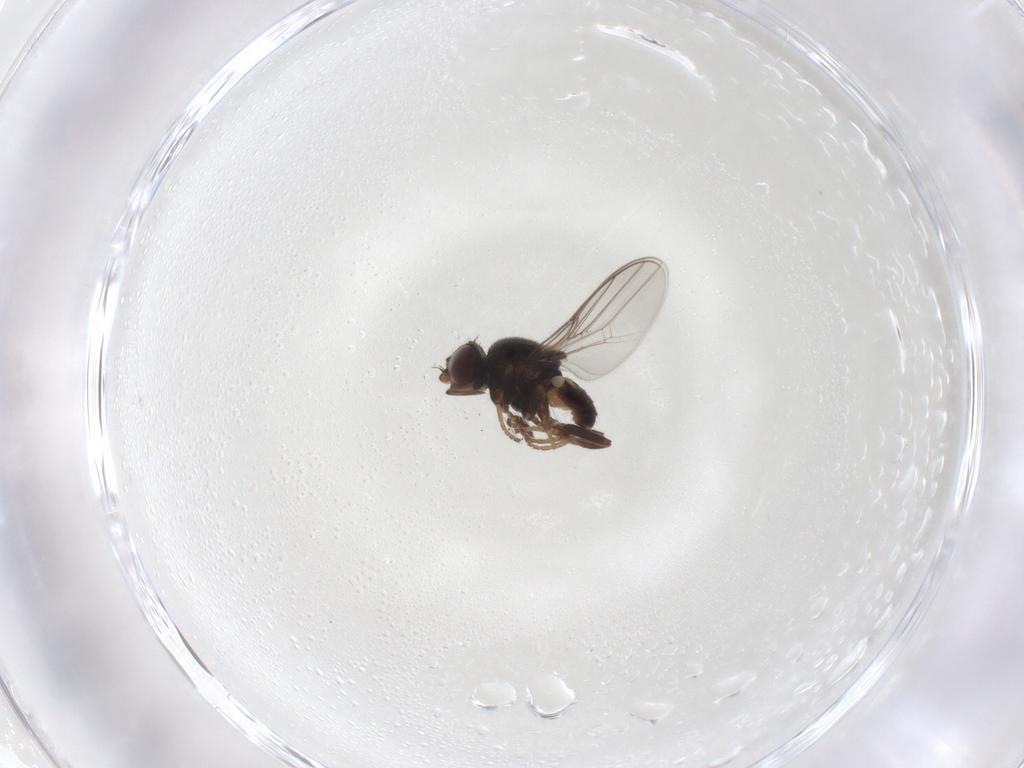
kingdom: Animalia
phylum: Arthropoda
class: Insecta
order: Diptera
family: Chloropidae
